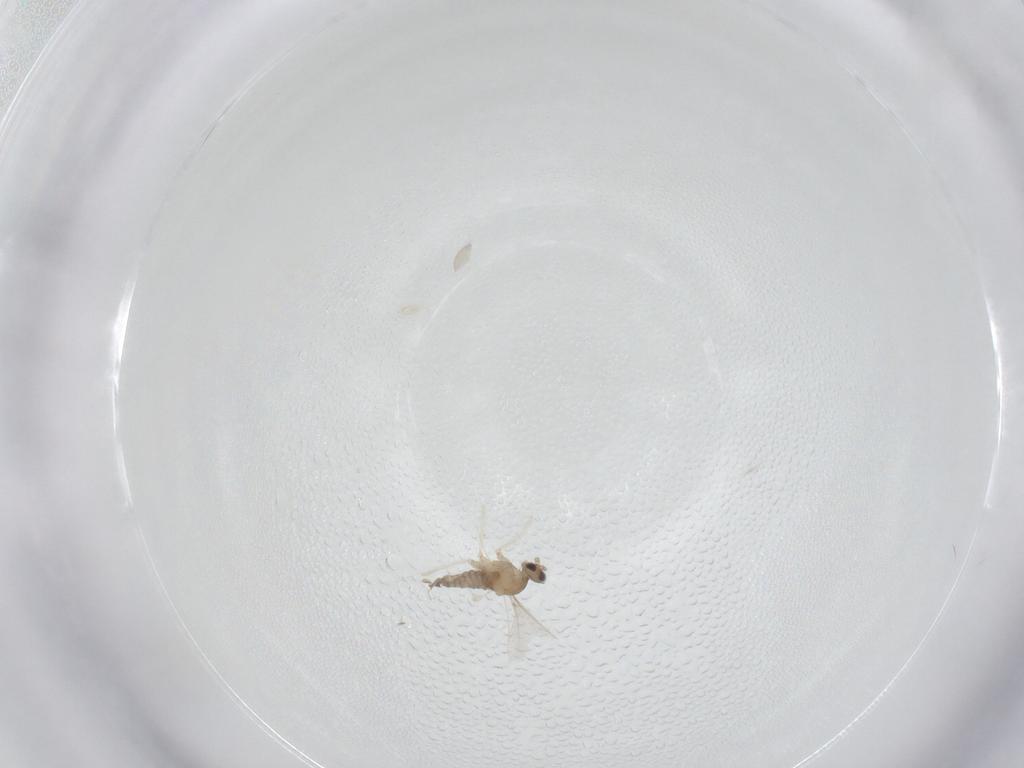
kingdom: Animalia
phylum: Arthropoda
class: Insecta
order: Diptera
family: Cecidomyiidae
